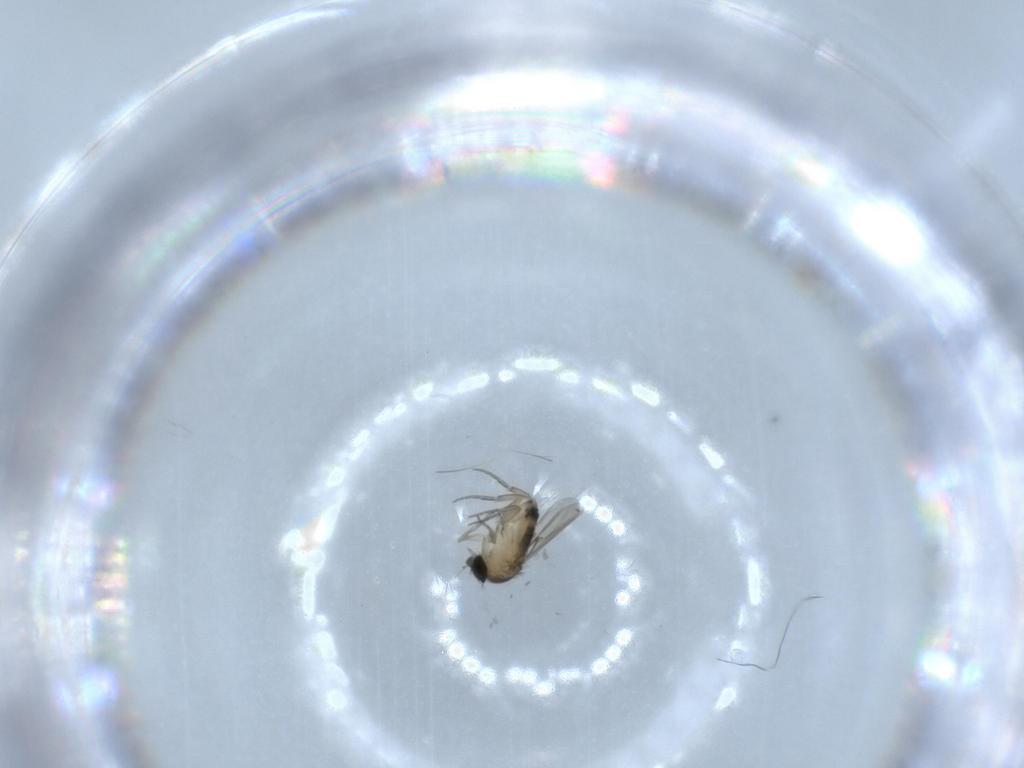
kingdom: Animalia
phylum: Arthropoda
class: Insecta
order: Diptera
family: Phoridae
